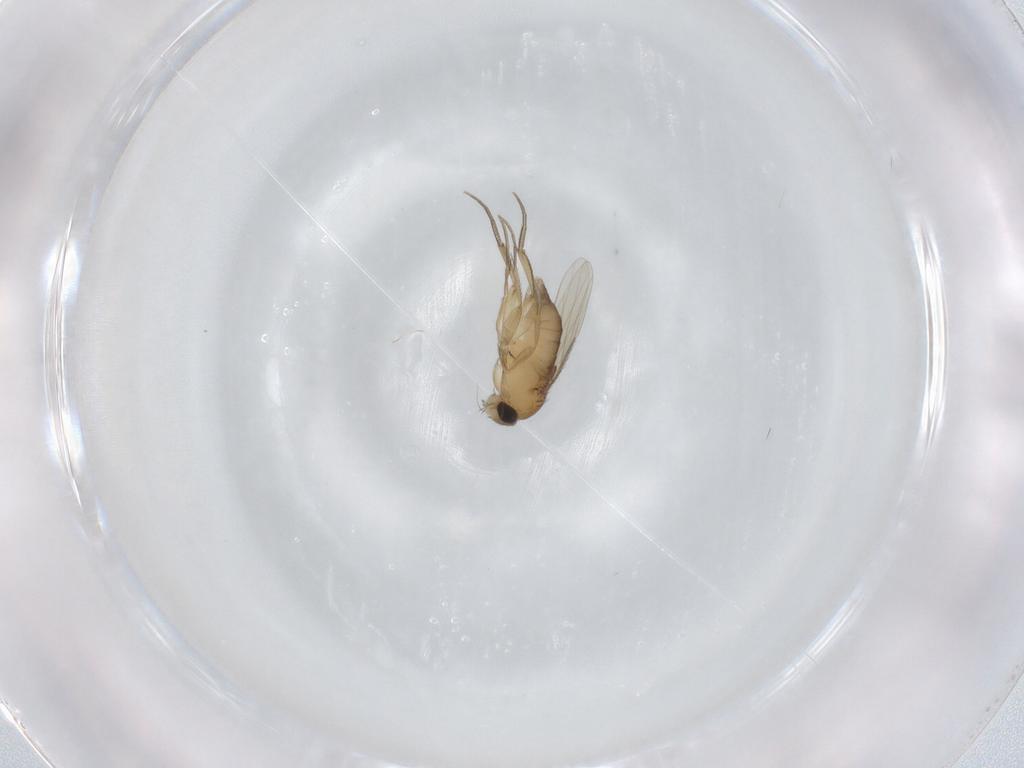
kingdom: Animalia
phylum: Arthropoda
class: Insecta
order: Diptera
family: Phoridae
